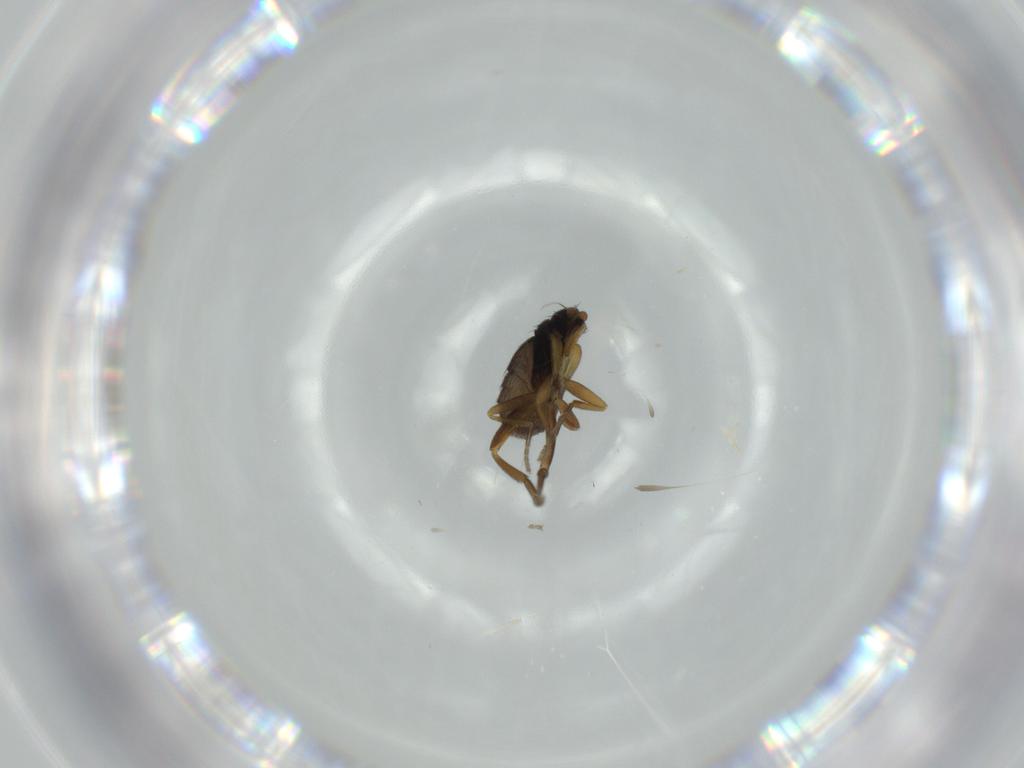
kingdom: Animalia
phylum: Arthropoda
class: Insecta
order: Diptera
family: Phoridae
